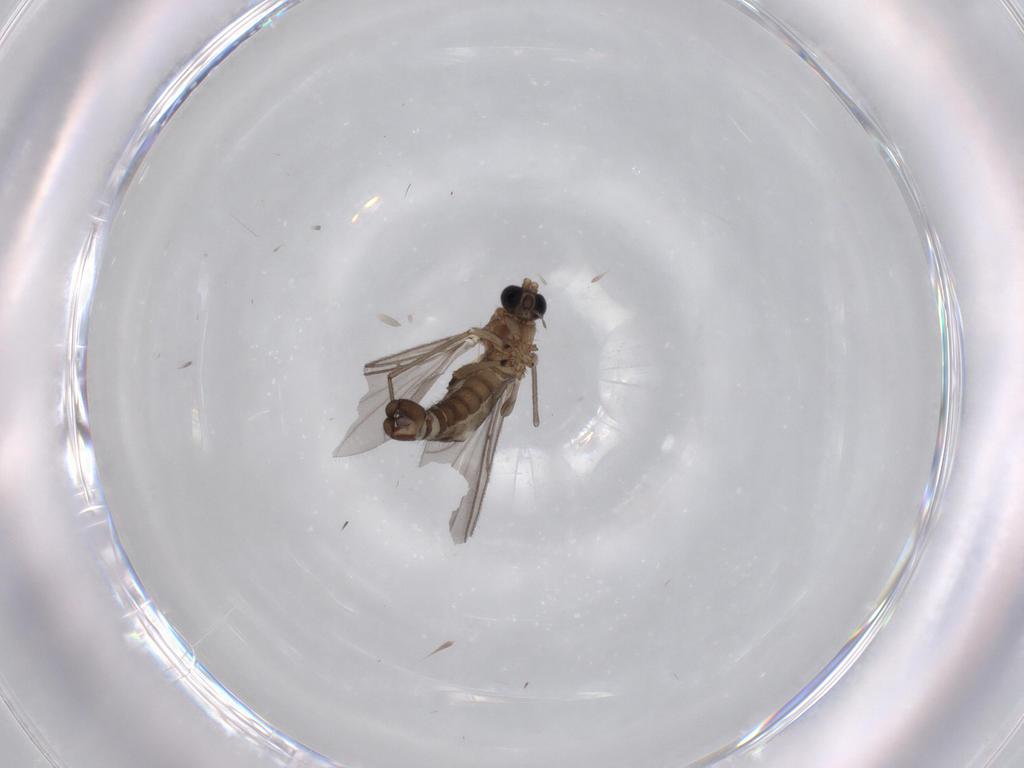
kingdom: Animalia
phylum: Arthropoda
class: Insecta
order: Diptera
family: Sciaridae
